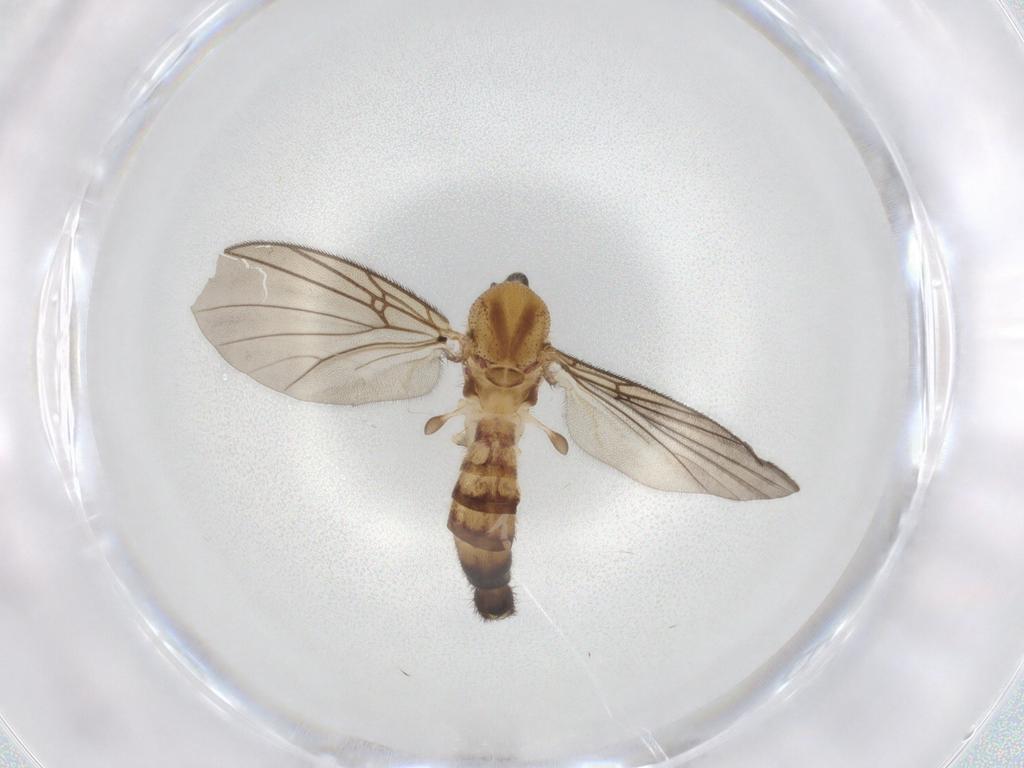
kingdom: Animalia
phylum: Arthropoda
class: Insecta
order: Diptera
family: Mycetophilidae
